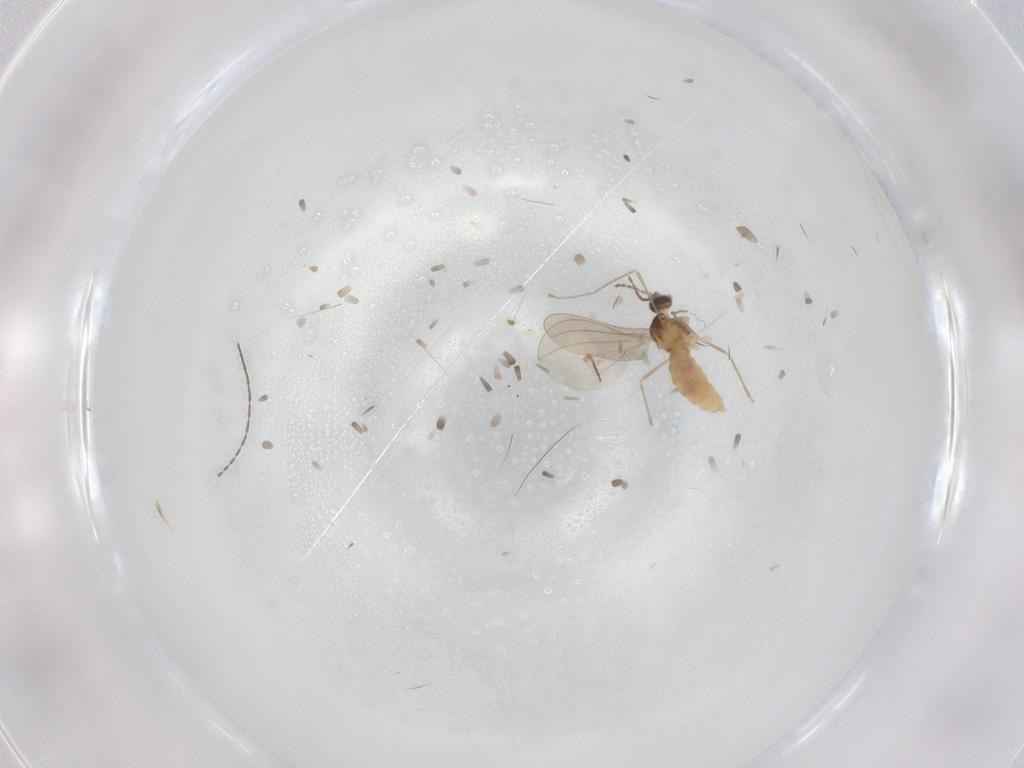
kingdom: Animalia
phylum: Arthropoda
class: Insecta
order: Diptera
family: Cecidomyiidae
